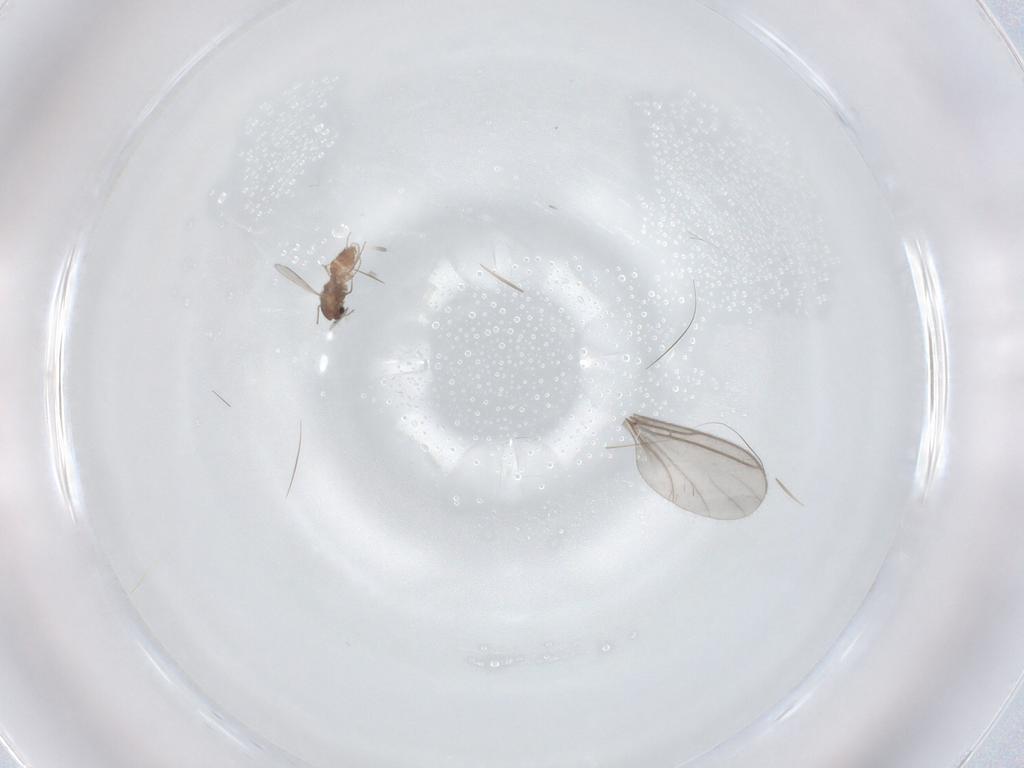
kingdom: Animalia
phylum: Arthropoda
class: Insecta
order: Diptera
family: Chironomidae
